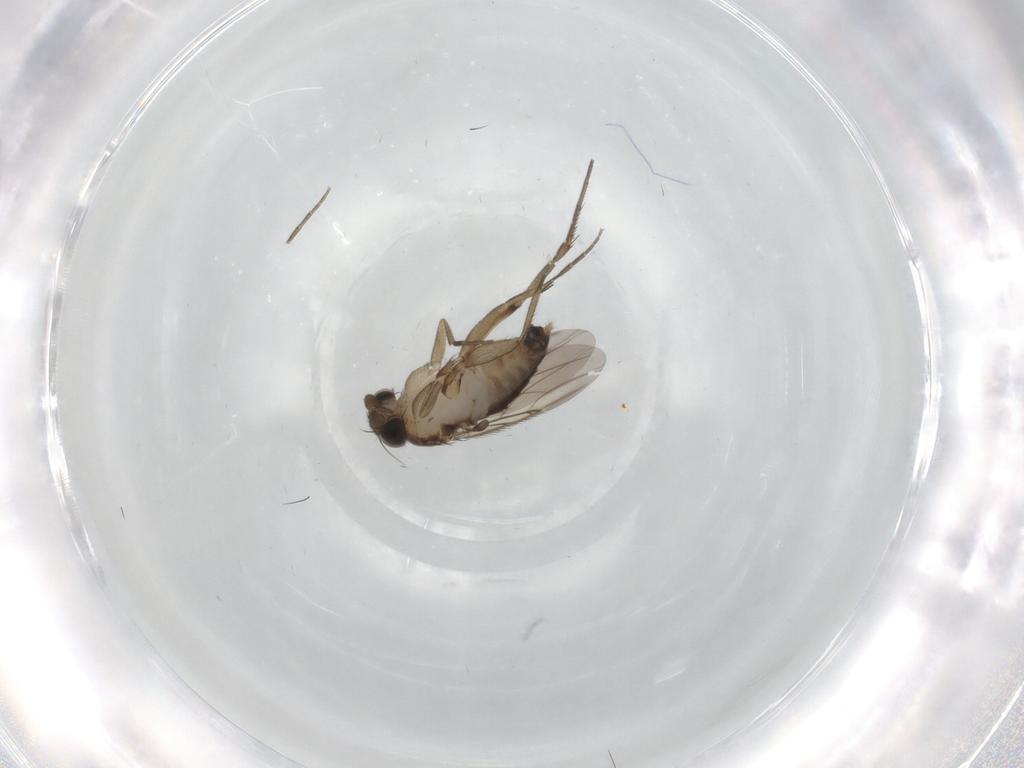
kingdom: Animalia
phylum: Arthropoda
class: Insecta
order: Diptera
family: Phoridae
